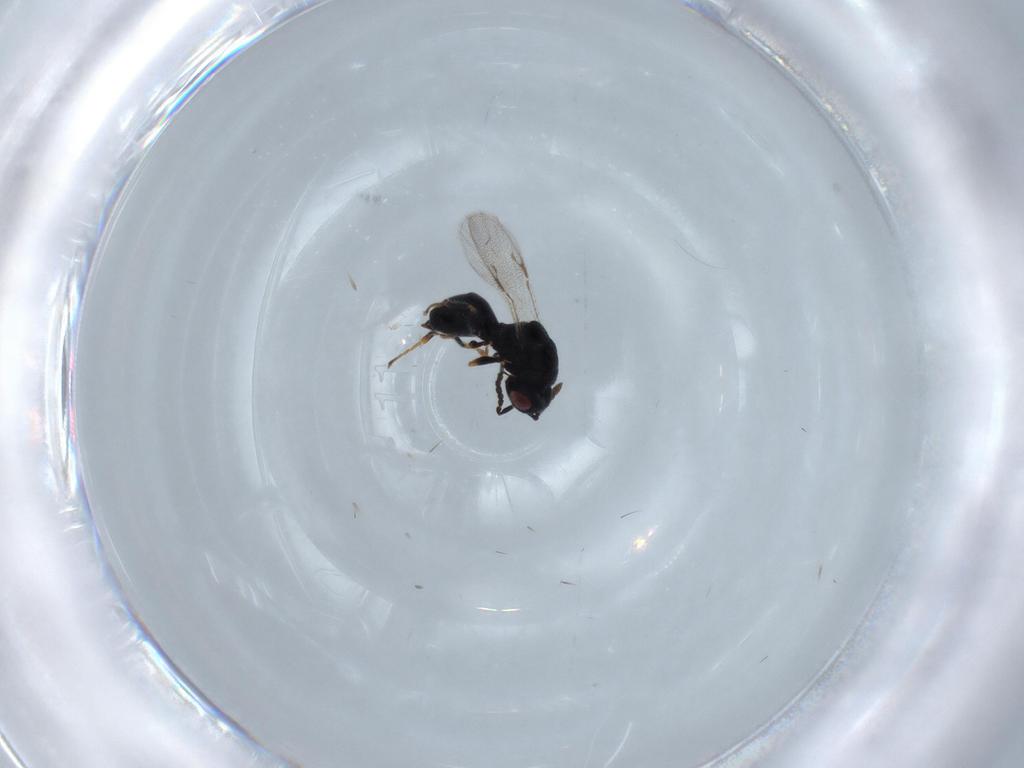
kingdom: Animalia
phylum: Arthropoda
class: Insecta
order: Hymenoptera
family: Eurytomidae
